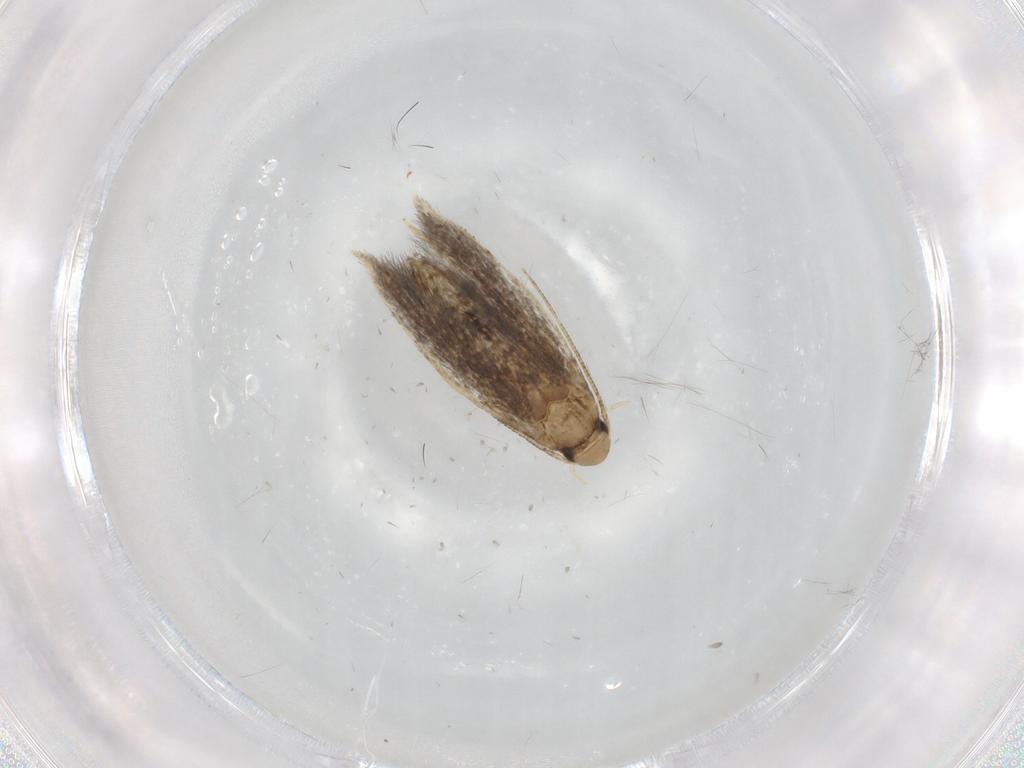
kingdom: Animalia
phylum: Arthropoda
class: Insecta
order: Lepidoptera
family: Elachistidae
